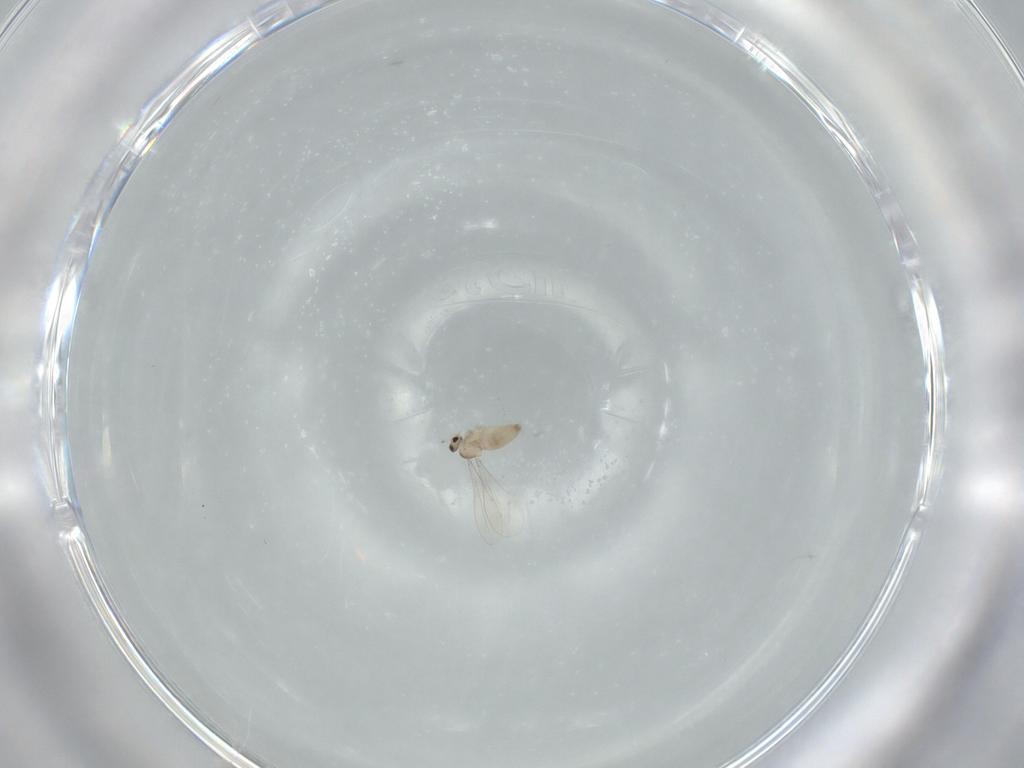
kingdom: Animalia
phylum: Arthropoda
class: Insecta
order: Diptera
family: Cecidomyiidae
